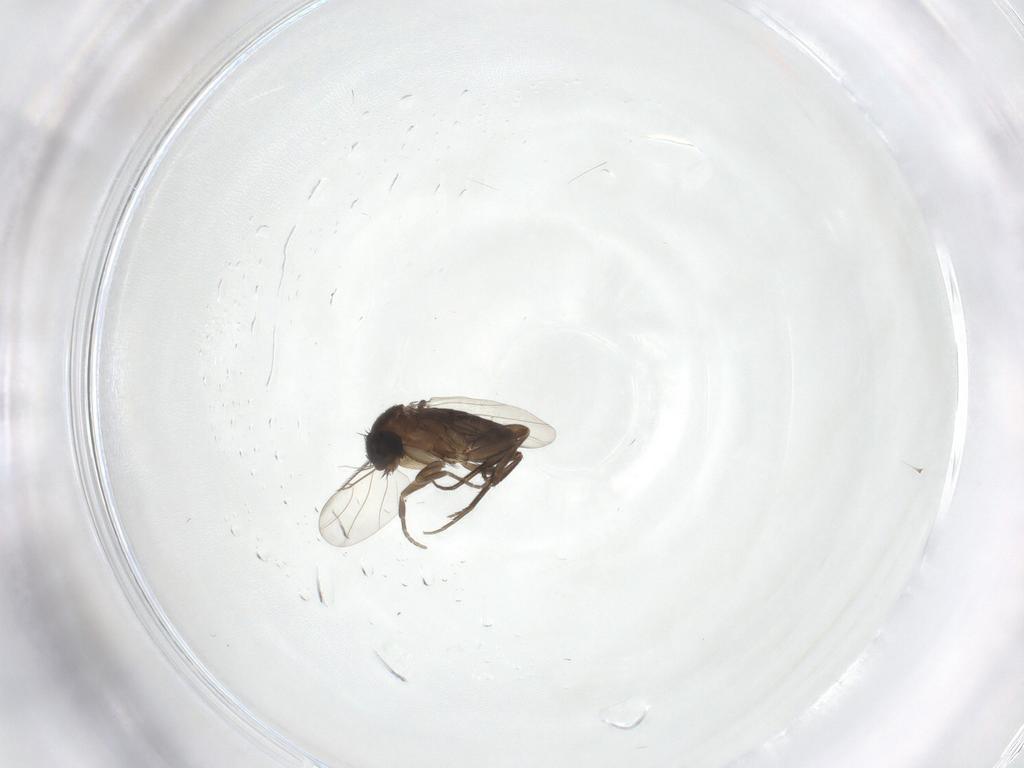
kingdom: Animalia
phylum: Arthropoda
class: Insecta
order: Diptera
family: Phoridae
